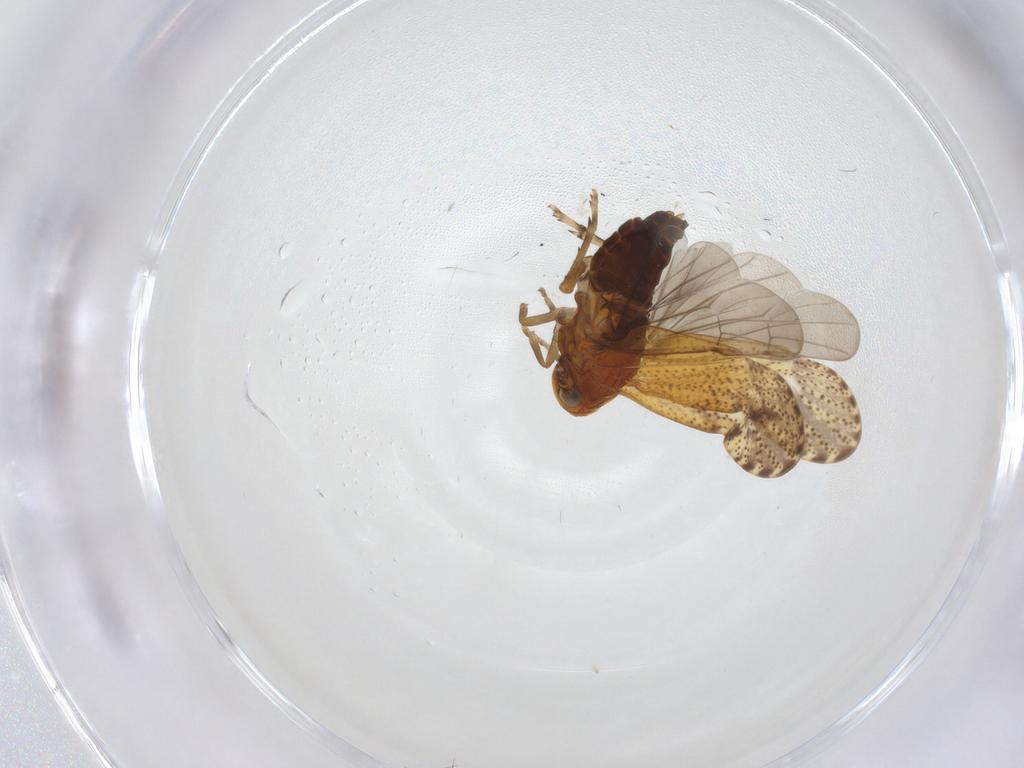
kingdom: Animalia
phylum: Arthropoda
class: Insecta
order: Hemiptera
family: Delphacidae
